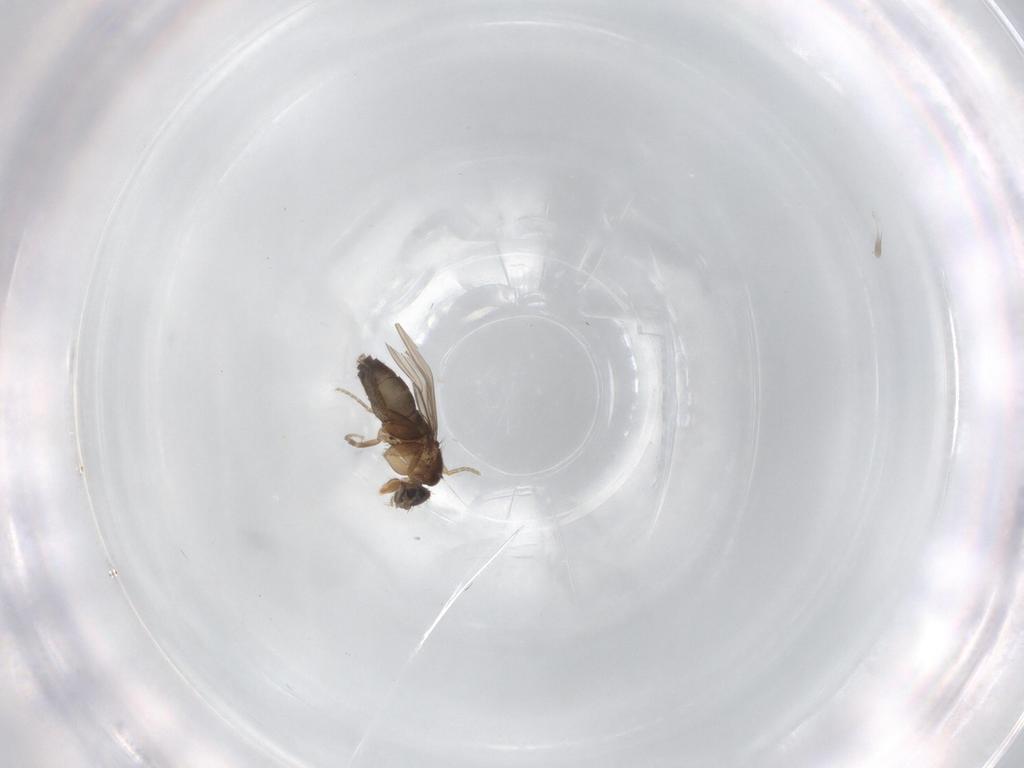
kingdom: Animalia
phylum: Arthropoda
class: Insecta
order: Diptera
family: Phoridae
